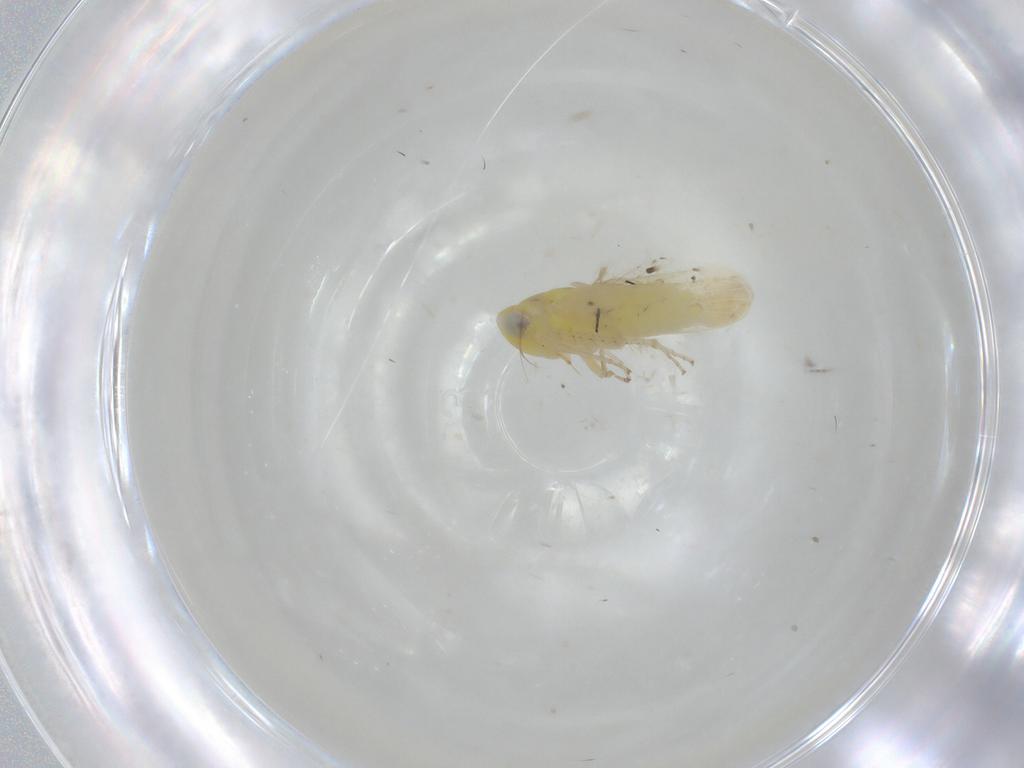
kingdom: Animalia
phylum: Arthropoda
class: Insecta
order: Hemiptera
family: Cicadellidae
